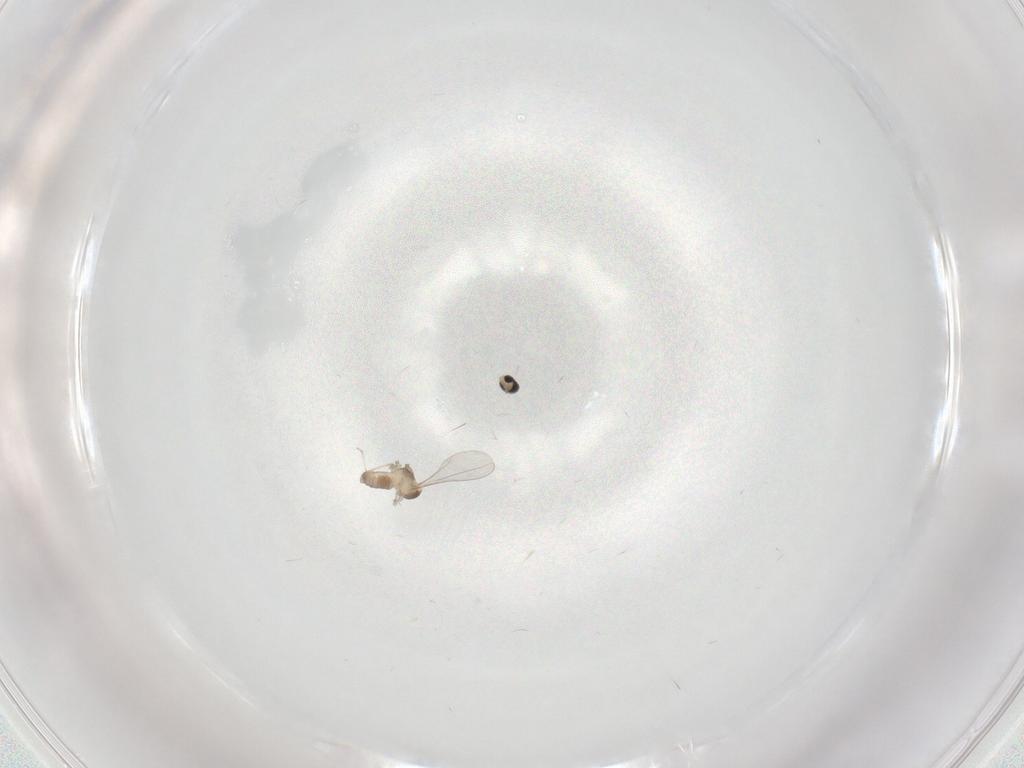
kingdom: Animalia
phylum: Arthropoda
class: Insecta
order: Diptera
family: Cecidomyiidae
